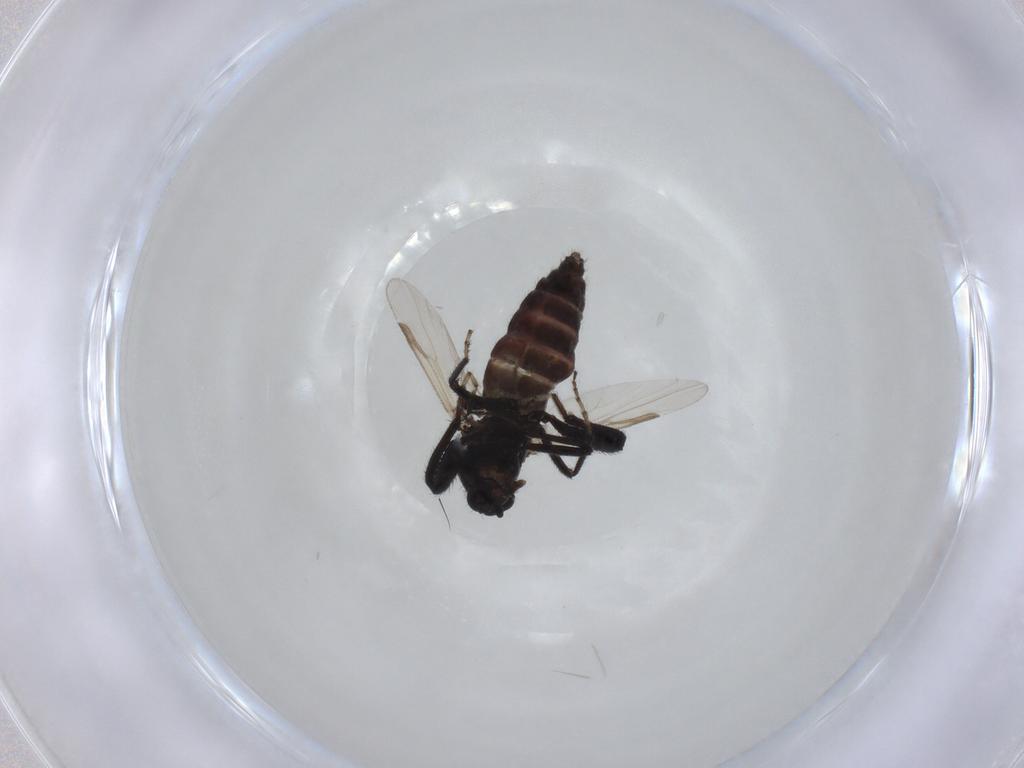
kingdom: Animalia
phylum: Arthropoda
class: Insecta
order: Diptera
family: Ceratopogonidae
